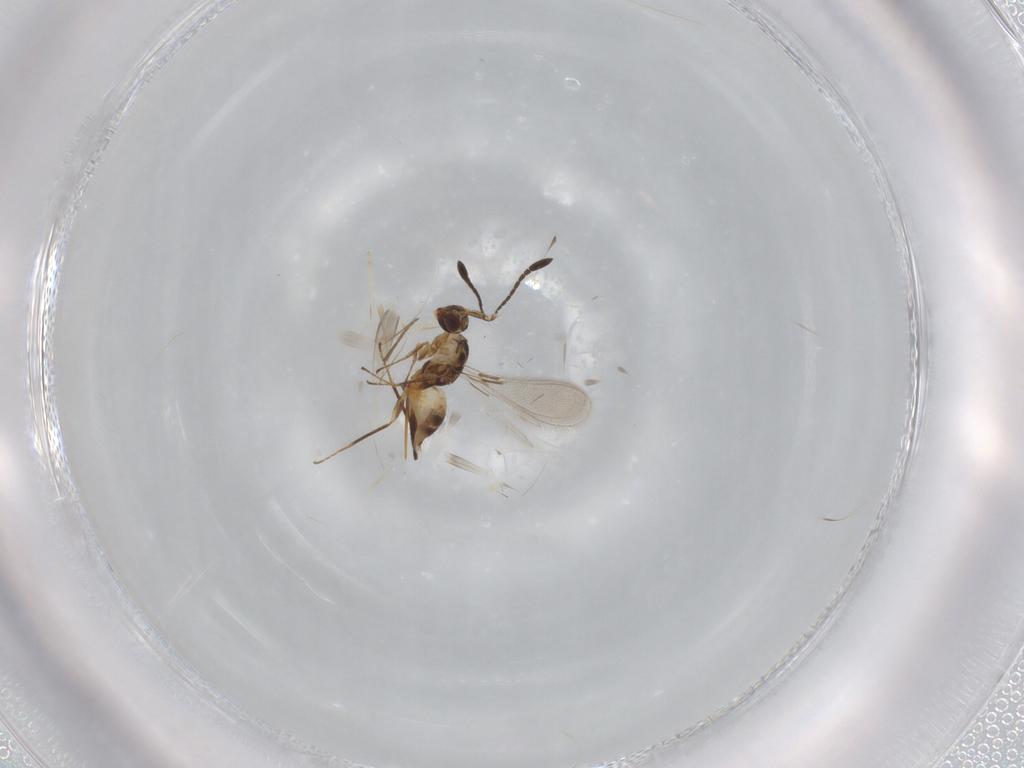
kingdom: Animalia
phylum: Arthropoda
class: Insecta
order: Hymenoptera
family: Mymaridae
